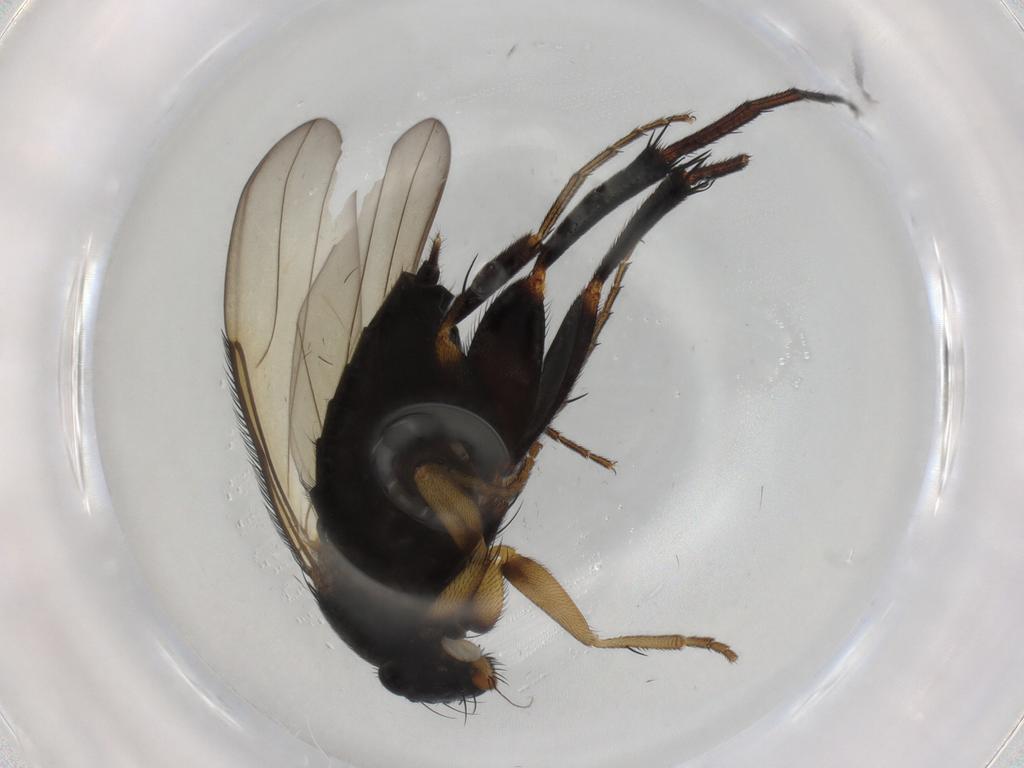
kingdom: Animalia
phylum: Arthropoda
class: Insecta
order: Diptera
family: Phoridae
